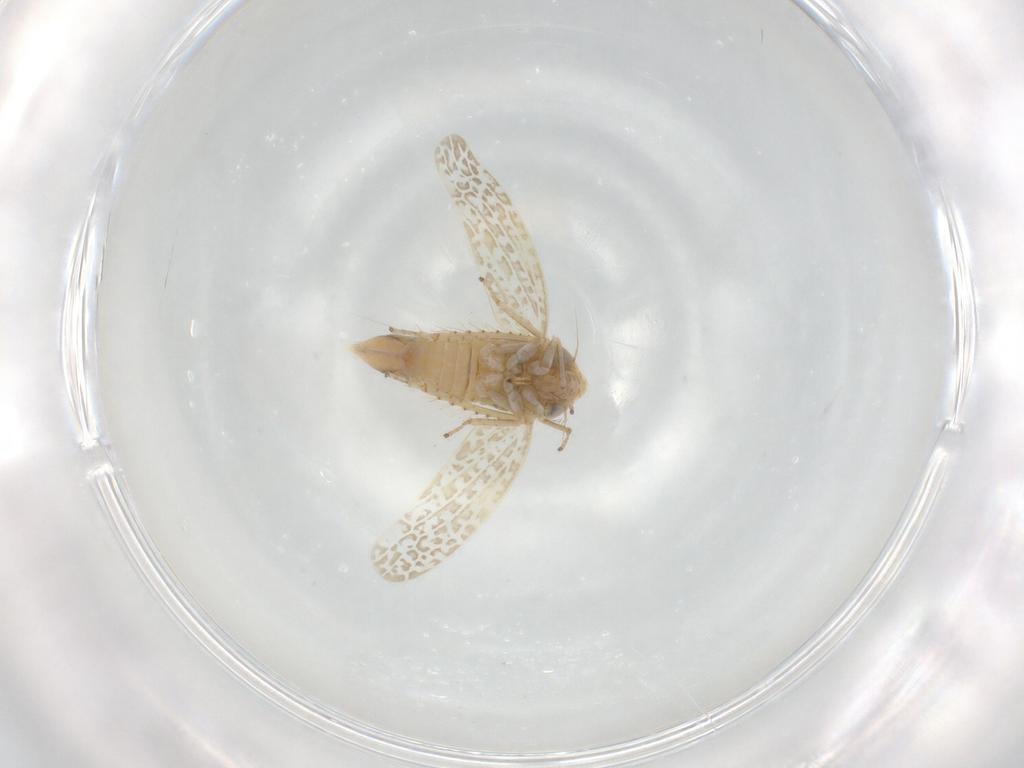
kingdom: Animalia
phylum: Arthropoda
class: Insecta
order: Hemiptera
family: Cicadellidae
